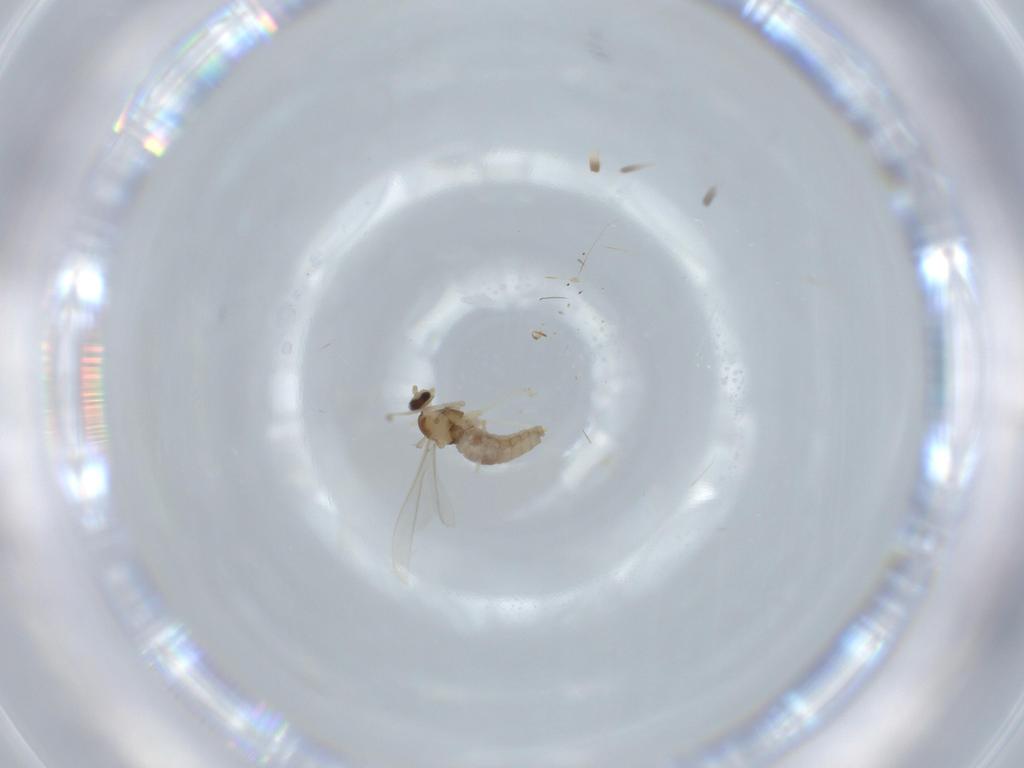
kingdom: Animalia
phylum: Arthropoda
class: Insecta
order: Diptera
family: Cecidomyiidae
